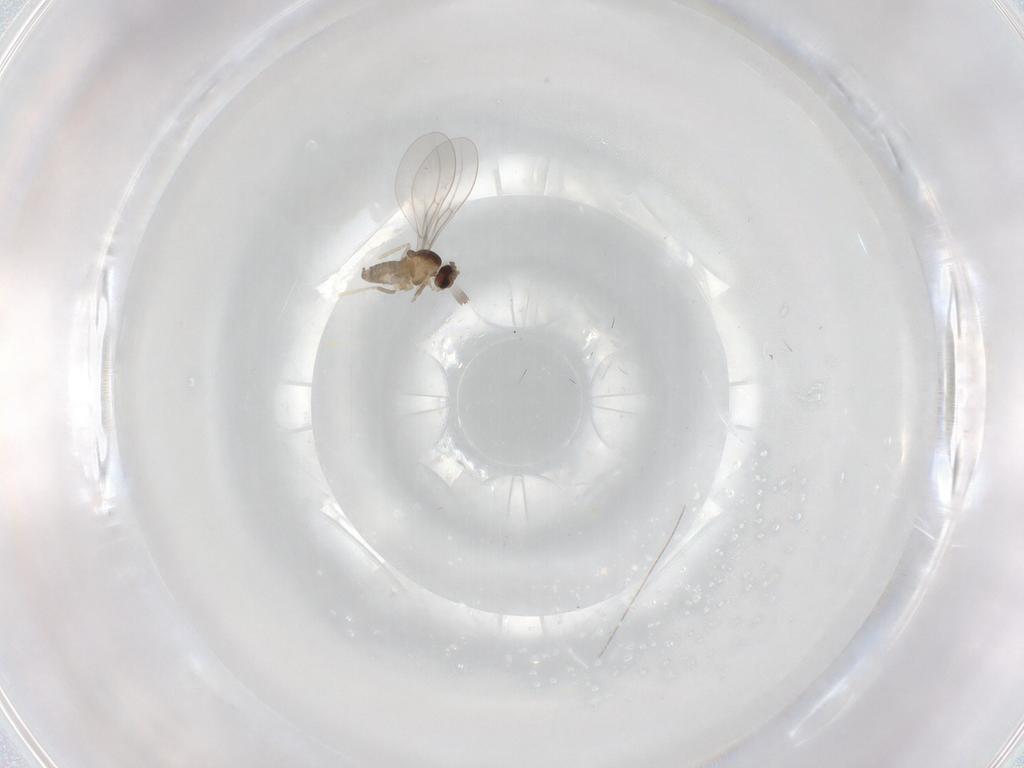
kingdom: Animalia
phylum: Arthropoda
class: Insecta
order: Diptera
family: Cecidomyiidae
